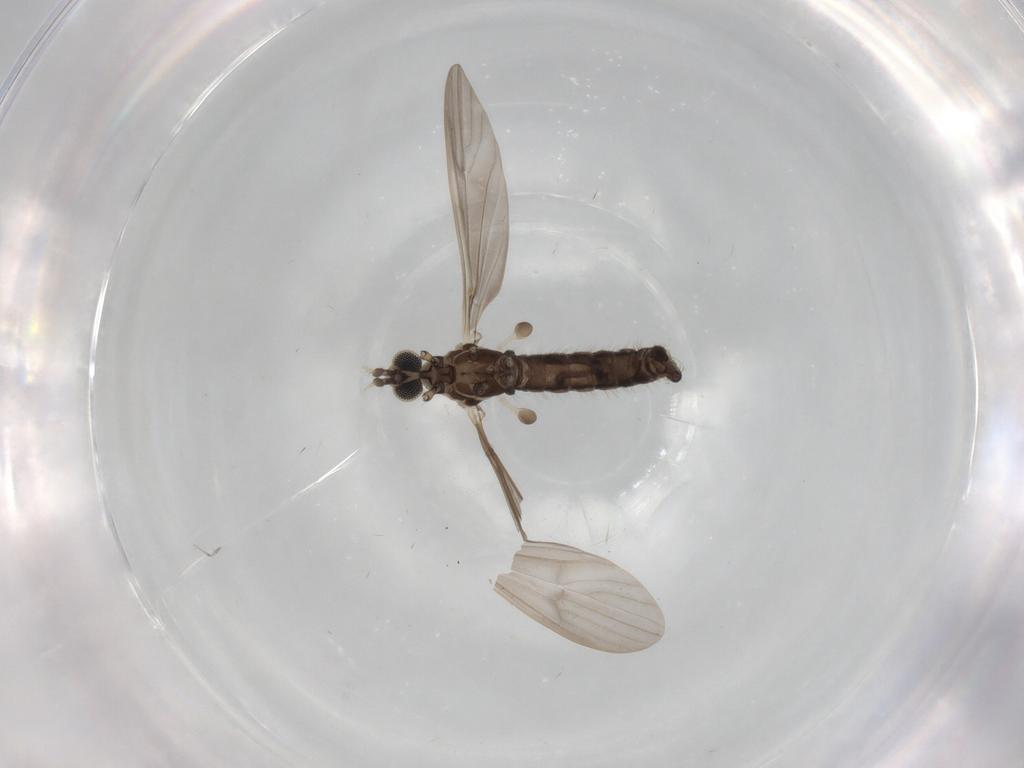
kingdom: Animalia
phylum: Arthropoda
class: Insecta
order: Diptera
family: Limoniidae
